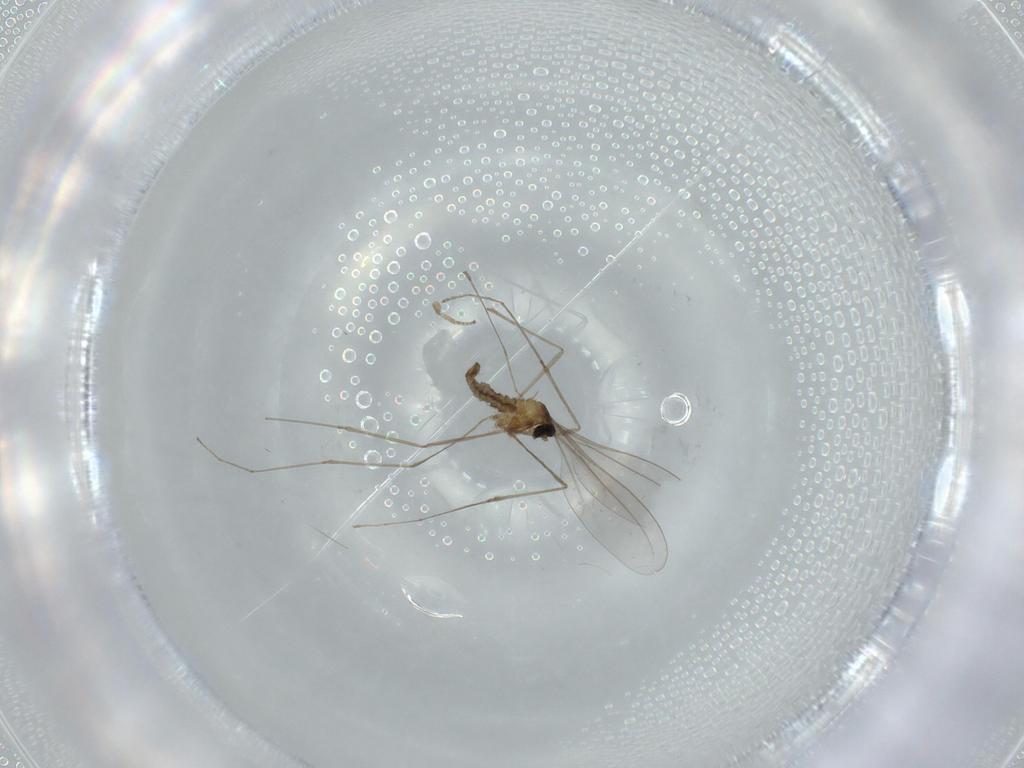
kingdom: Animalia
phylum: Arthropoda
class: Insecta
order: Diptera
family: Cecidomyiidae
